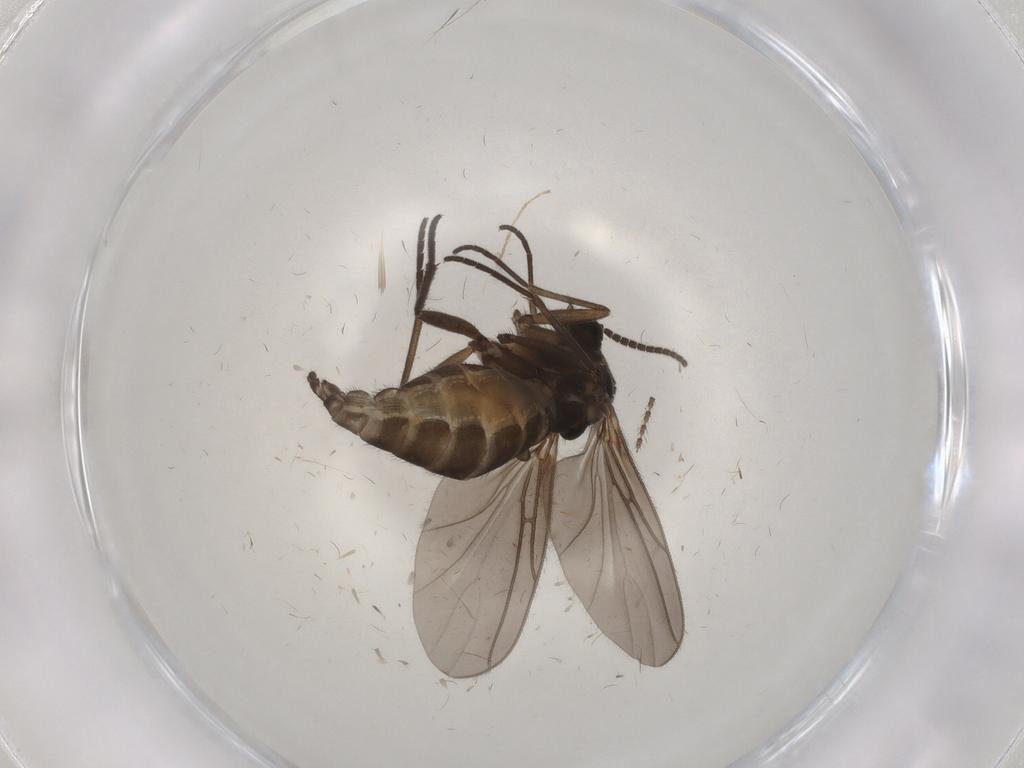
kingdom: Animalia
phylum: Arthropoda
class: Insecta
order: Diptera
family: Sciaridae
